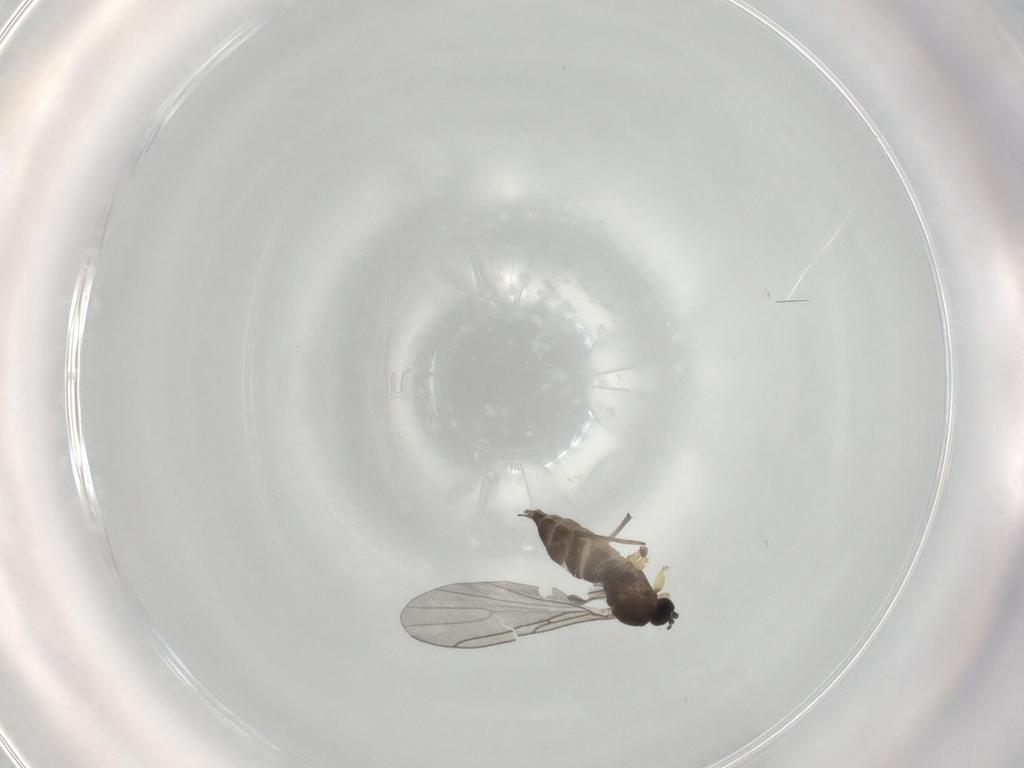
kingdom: Animalia
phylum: Arthropoda
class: Insecta
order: Diptera
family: Sciaridae
